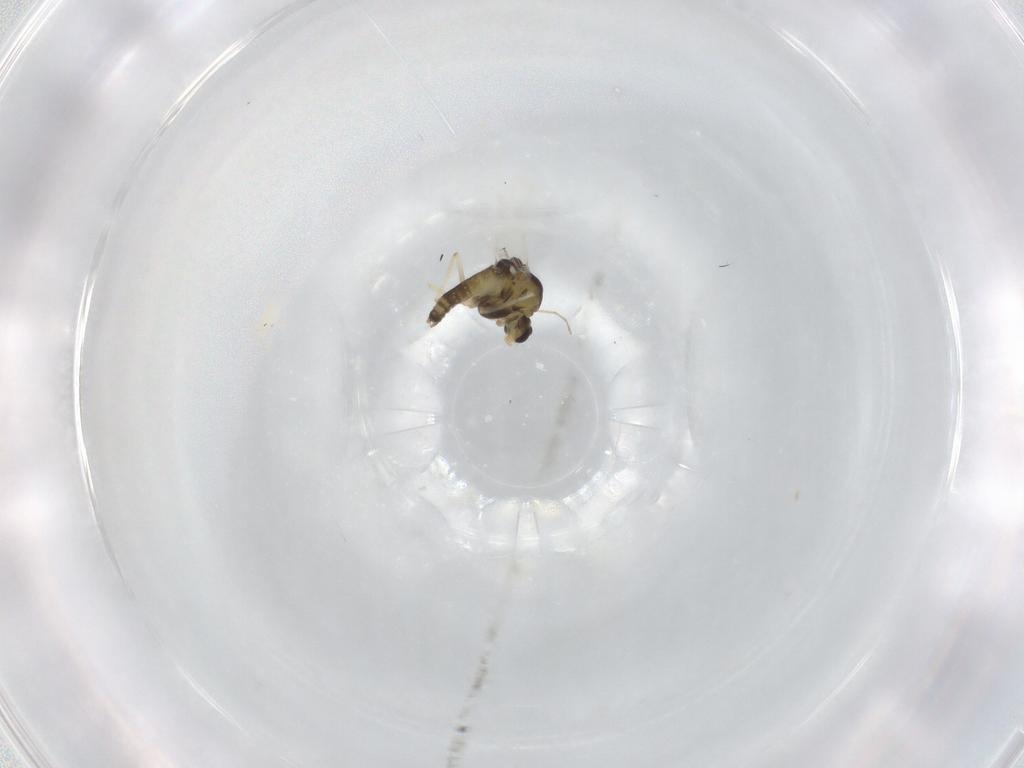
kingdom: Animalia
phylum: Arthropoda
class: Insecta
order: Diptera
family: Chironomidae
